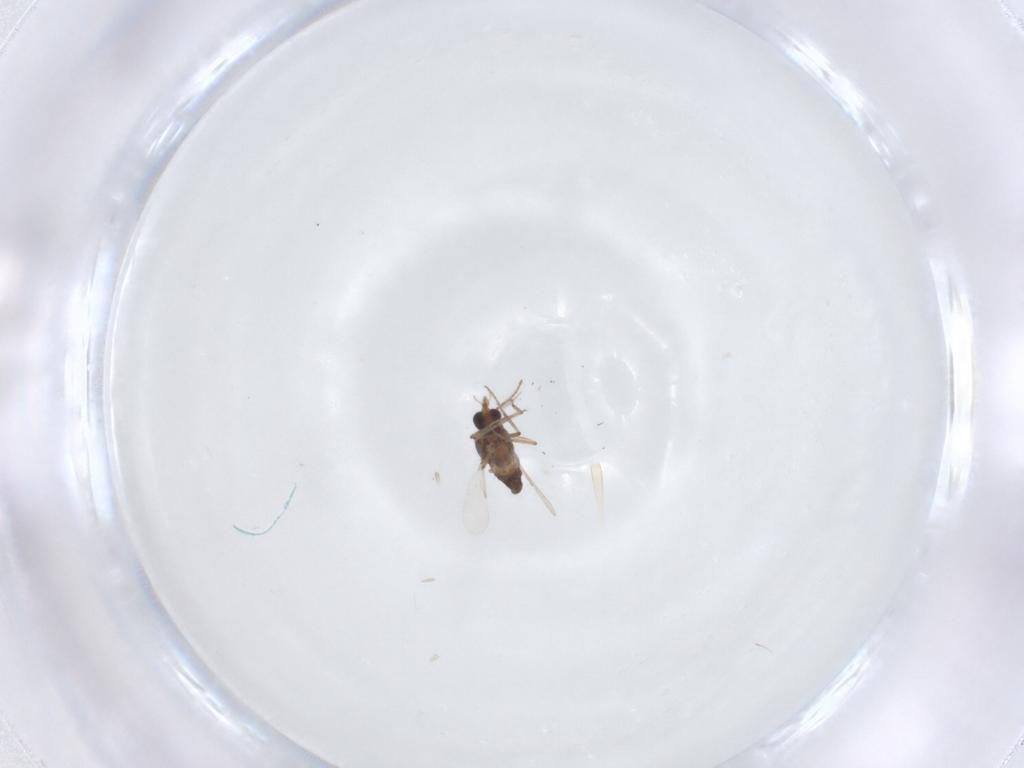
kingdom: Animalia
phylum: Arthropoda
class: Insecta
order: Diptera
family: Ceratopogonidae
